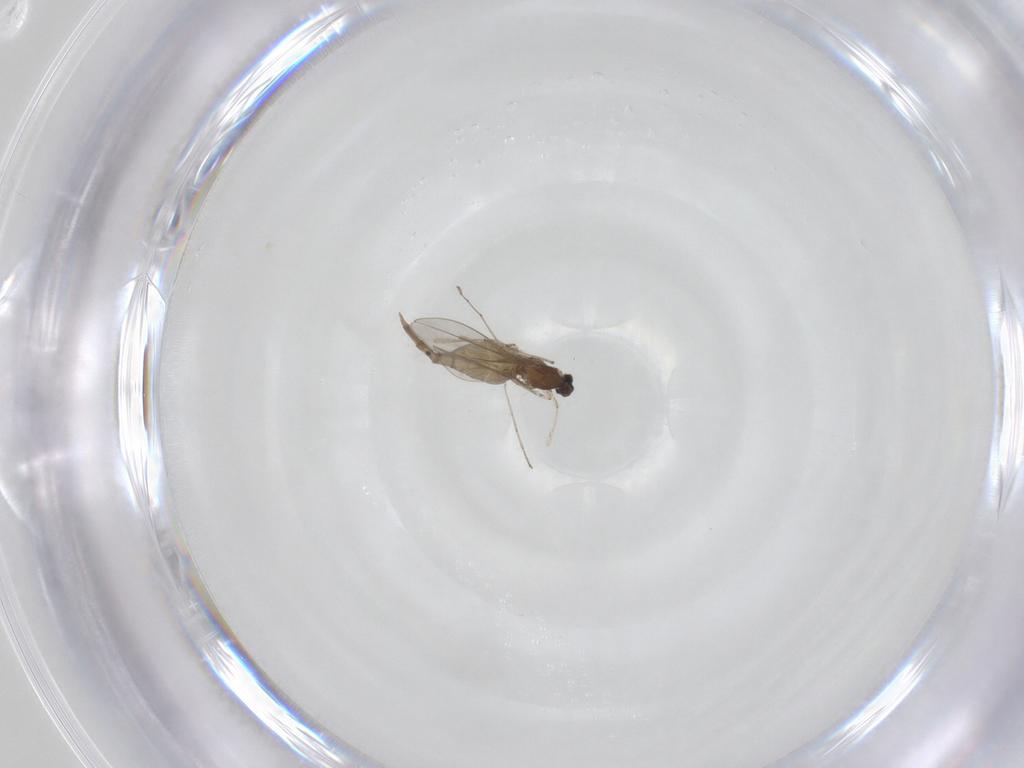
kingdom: Animalia
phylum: Arthropoda
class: Insecta
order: Diptera
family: Cecidomyiidae
